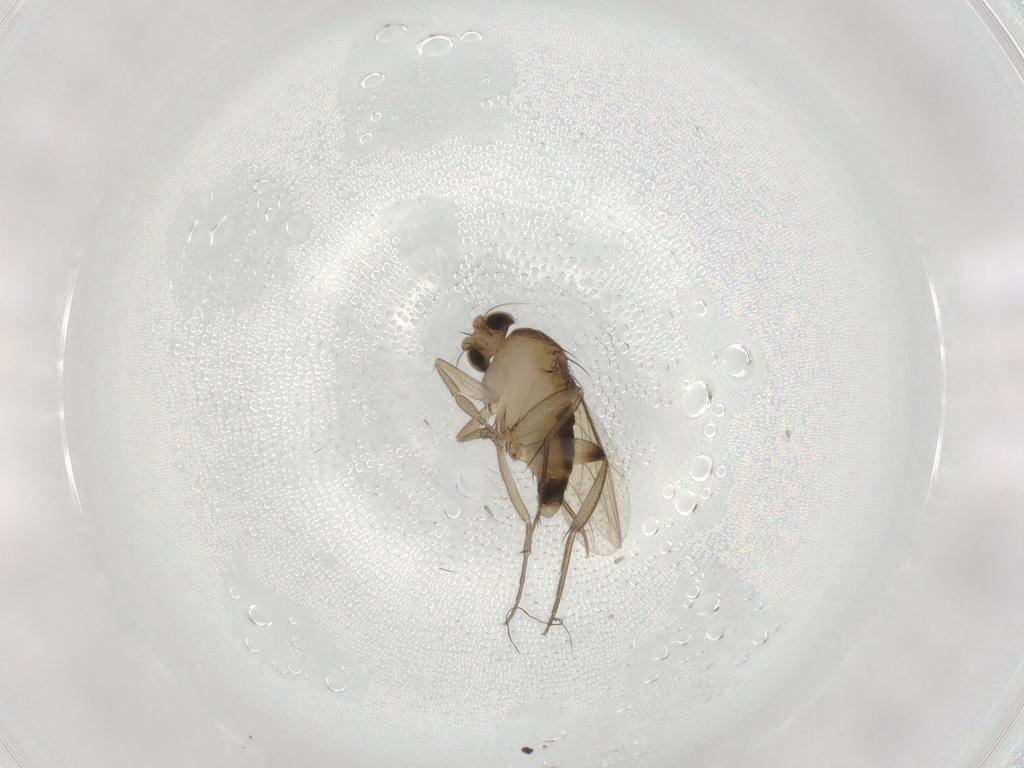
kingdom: Animalia
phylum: Arthropoda
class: Insecta
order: Diptera
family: Phoridae
